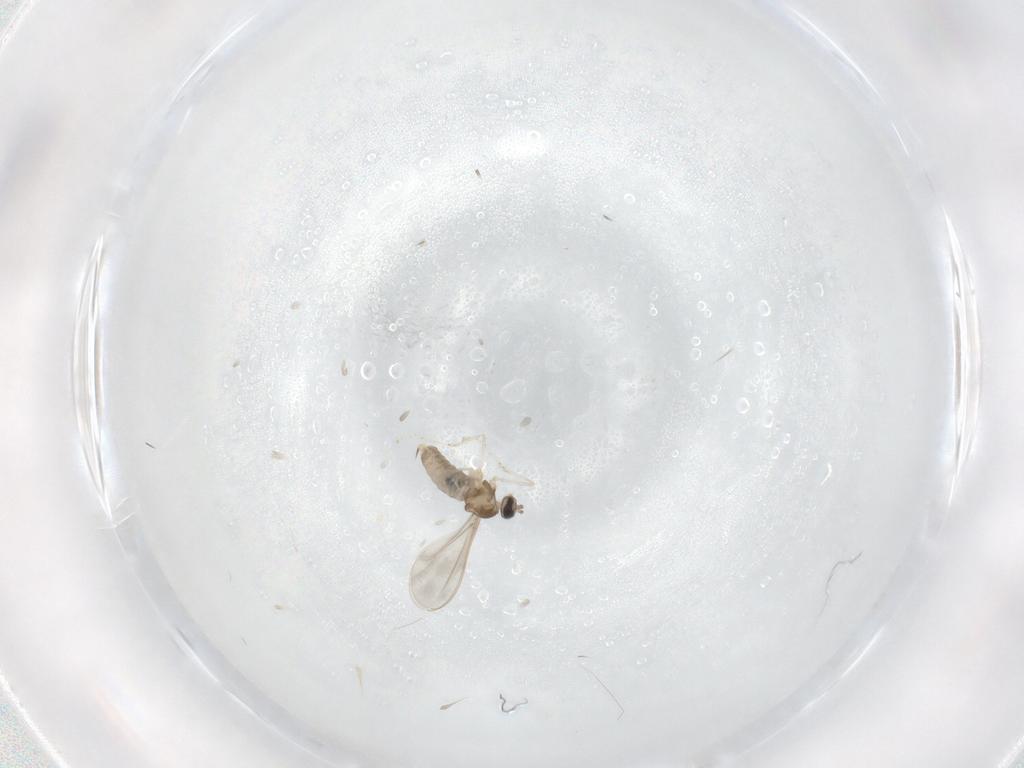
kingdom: Animalia
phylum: Arthropoda
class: Insecta
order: Diptera
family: Cecidomyiidae
